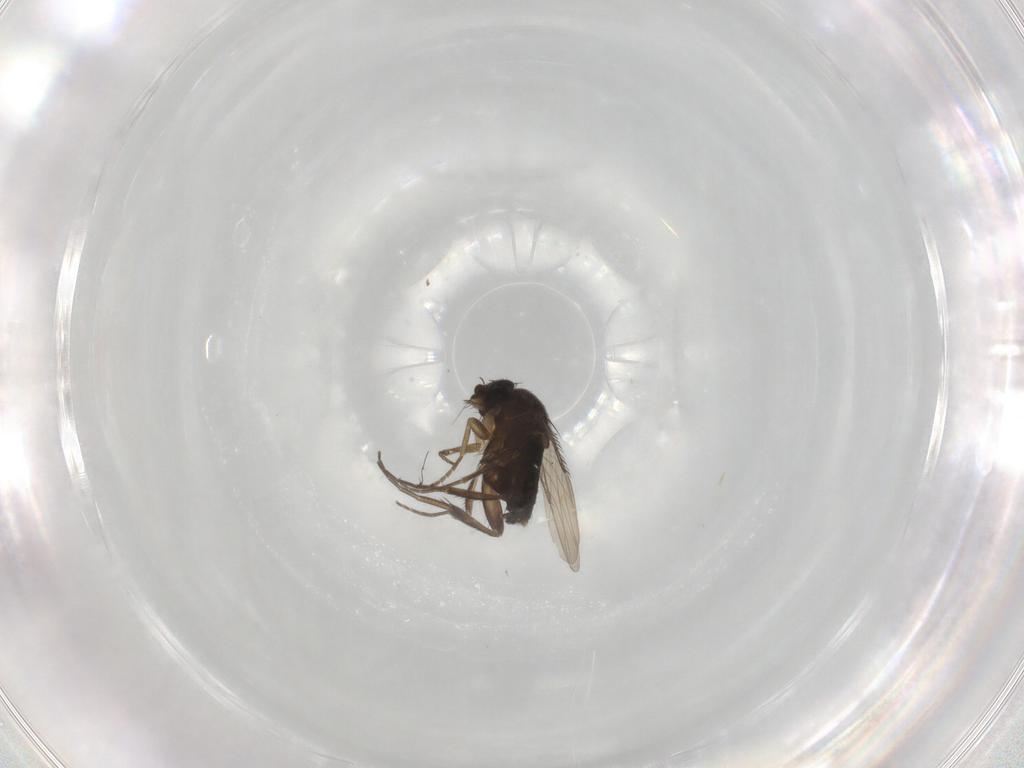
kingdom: Animalia
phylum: Arthropoda
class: Insecta
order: Diptera
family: Phoridae
